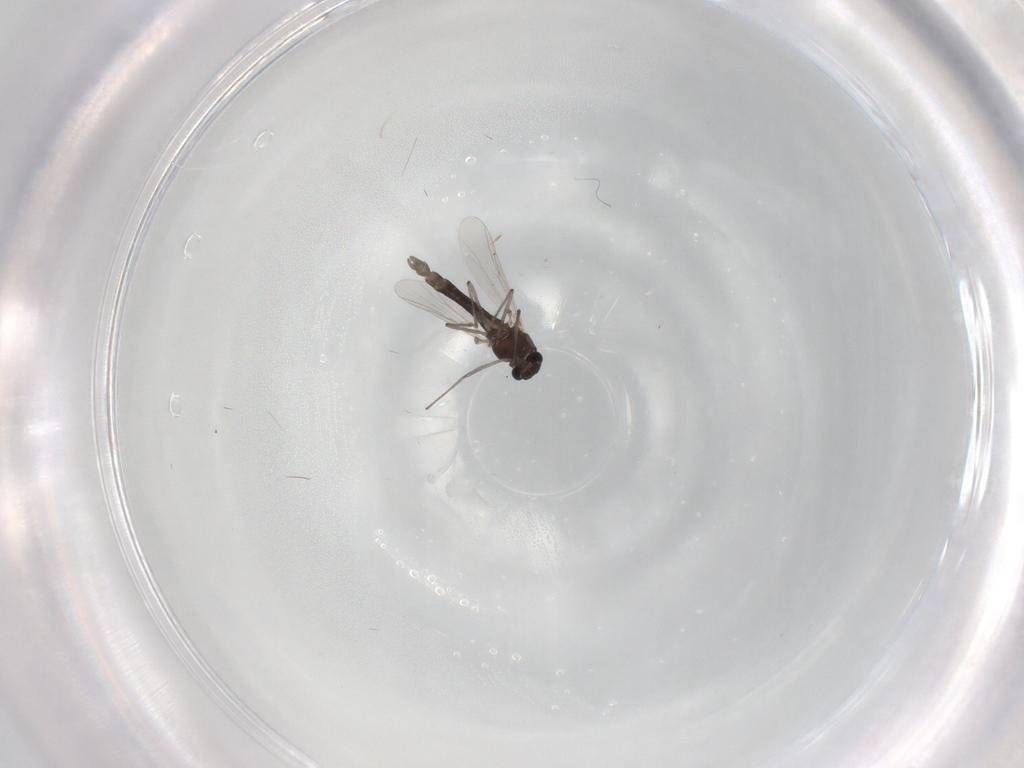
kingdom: Animalia
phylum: Arthropoda
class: Insecta
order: Diptera
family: Chironomidae
